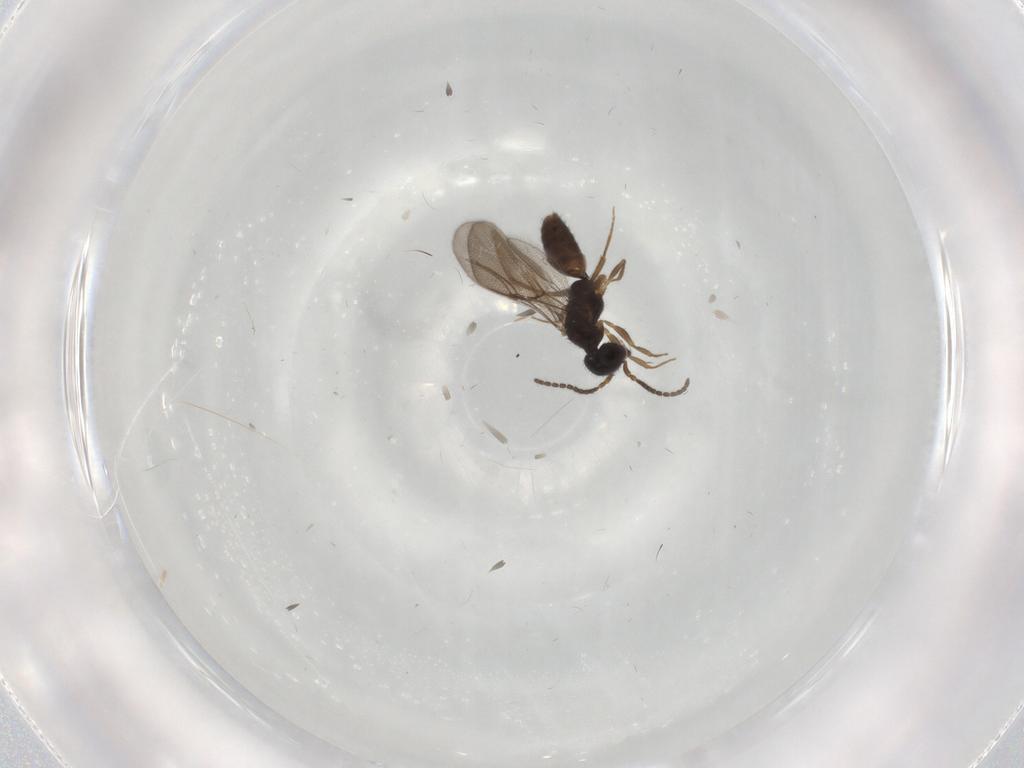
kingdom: Animalia
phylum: Arthropoda
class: Insecta
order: Hymenoptera
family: Bethylidae
